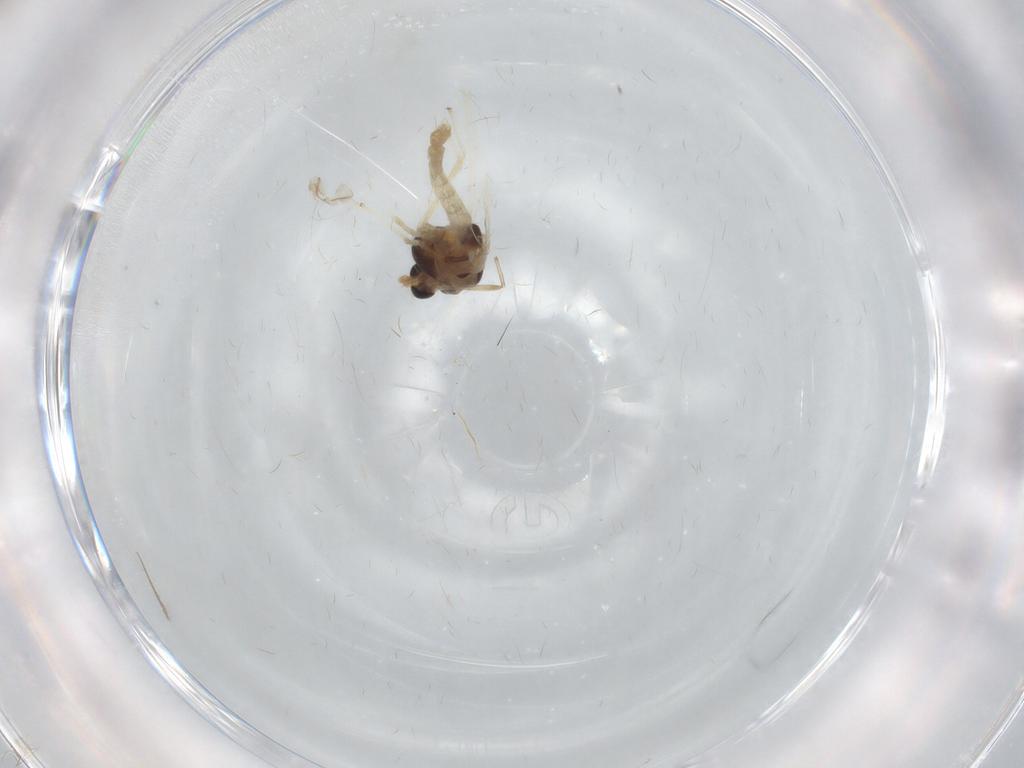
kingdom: Animalia
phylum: Arthropoda
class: Insecta
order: Diptera
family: Chironomidae
